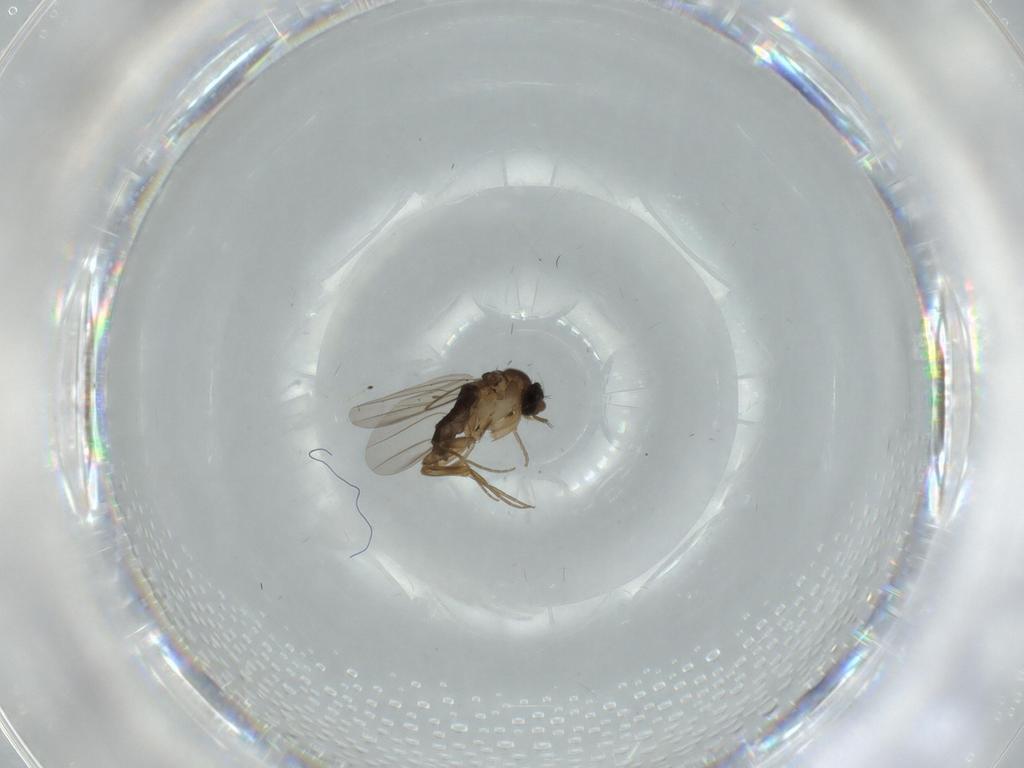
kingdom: Animalia
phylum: Arthropoda
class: Insecta
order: Diptera
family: Phoridae
